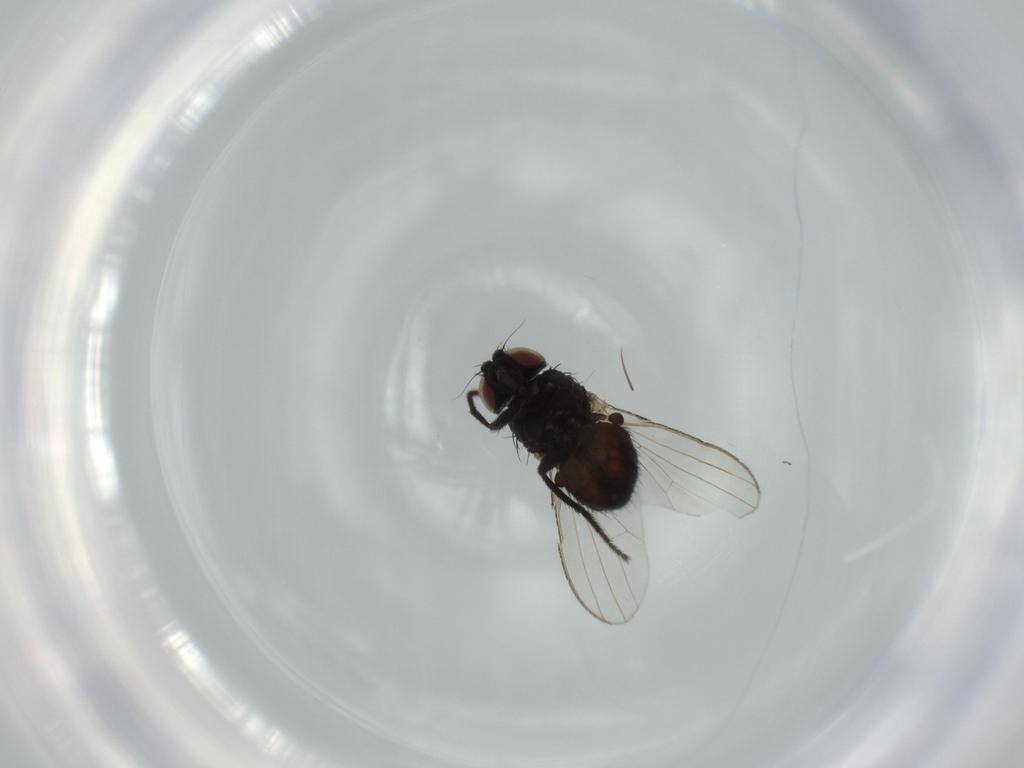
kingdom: Animalia
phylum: Arthropoda
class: Insecta
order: Diptera
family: Milichiidae
